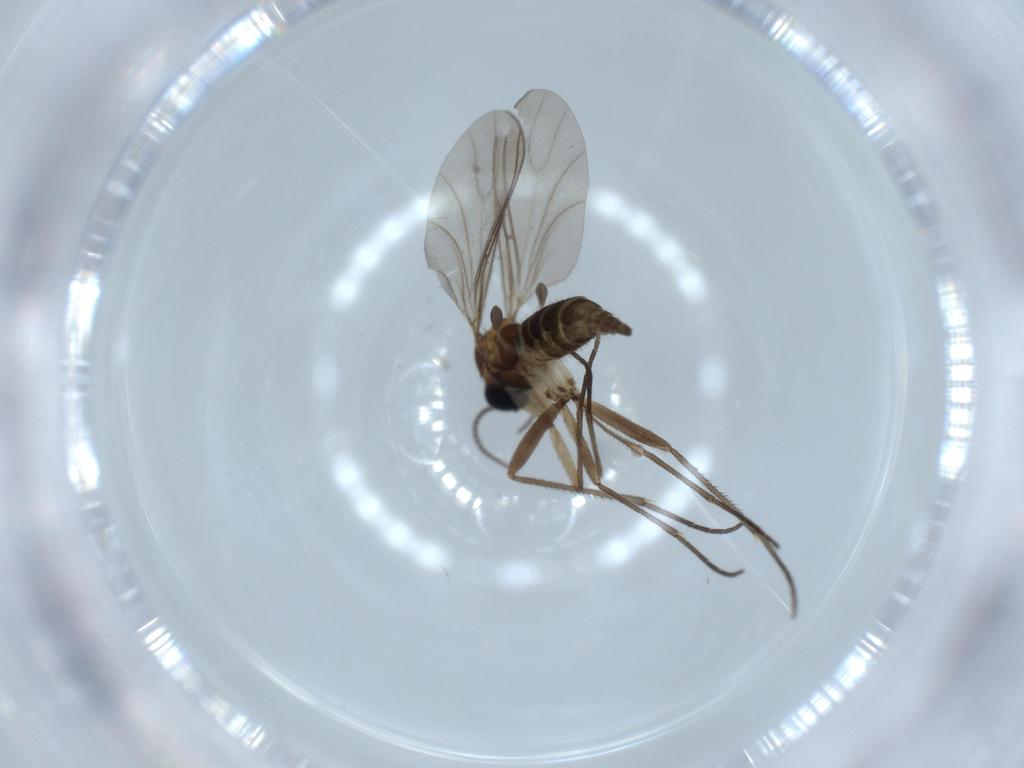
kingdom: Animalia
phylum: Arthropoda
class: Insecta
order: Diptera
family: Sciaridae
